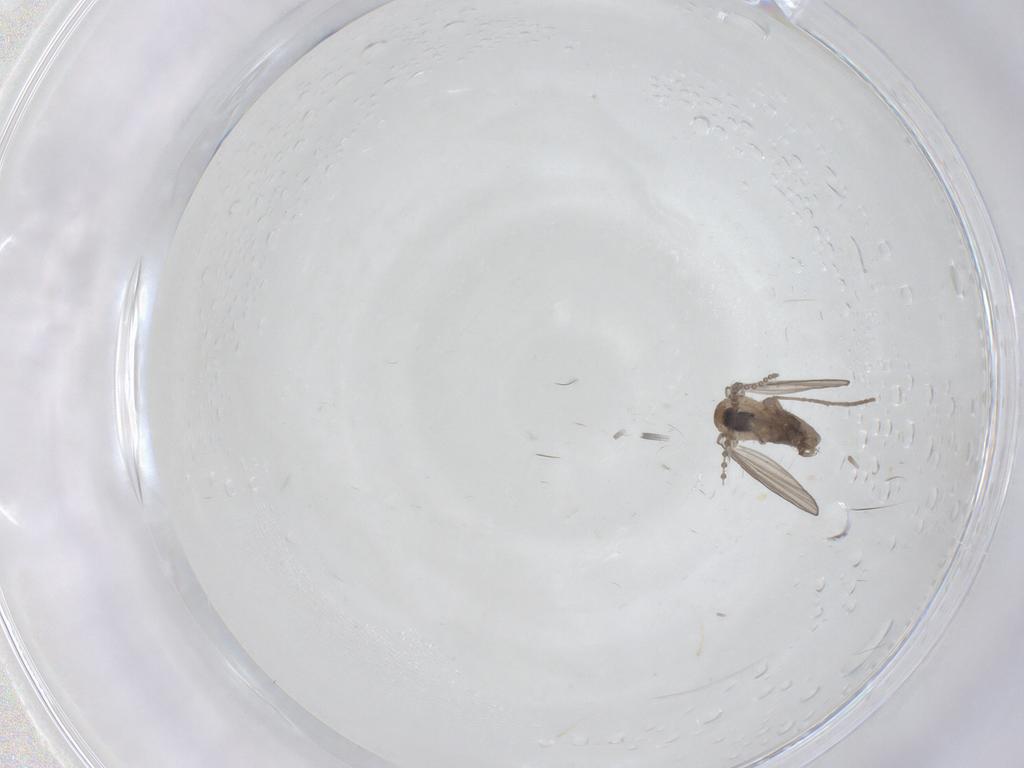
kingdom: Animalia
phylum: Arthropoda
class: Insecta
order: Diptera
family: Psychodidae
